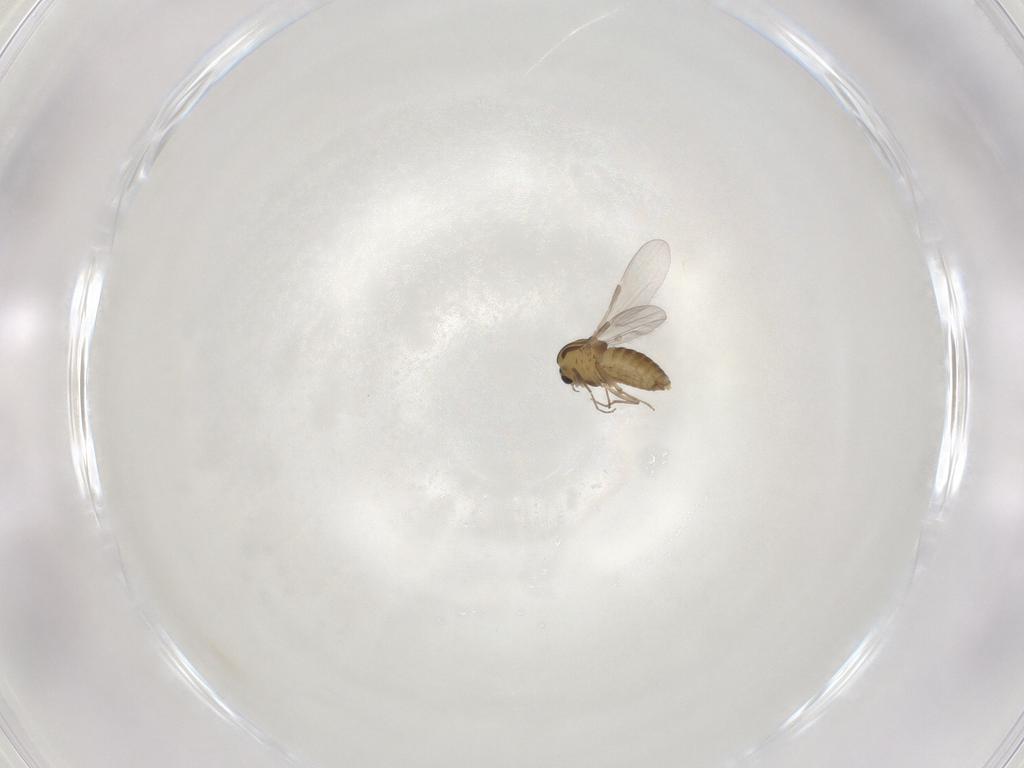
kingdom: Animalia
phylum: Arthropoda
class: Insecta
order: Diptera
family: Chironomidae
